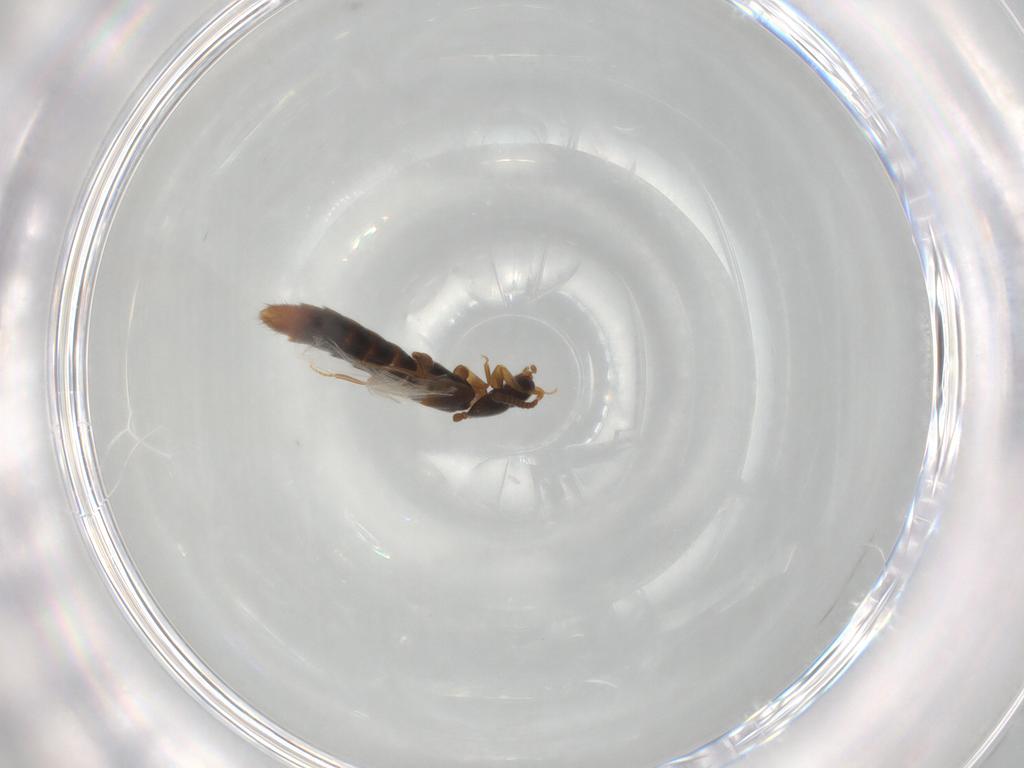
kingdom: Animalia
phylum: Arthropoda
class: Insecta
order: Coleoptera
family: Staphylinidae
